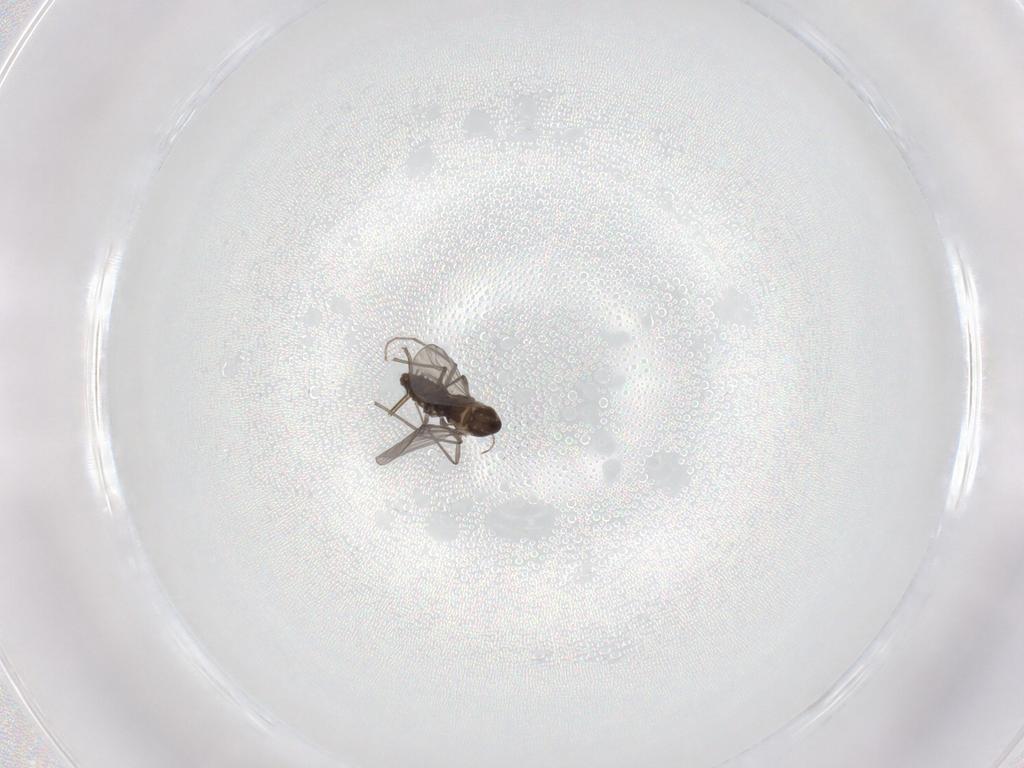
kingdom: Animalia
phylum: Arthropoda
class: Insecta
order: Diptera
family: Chironomidae
